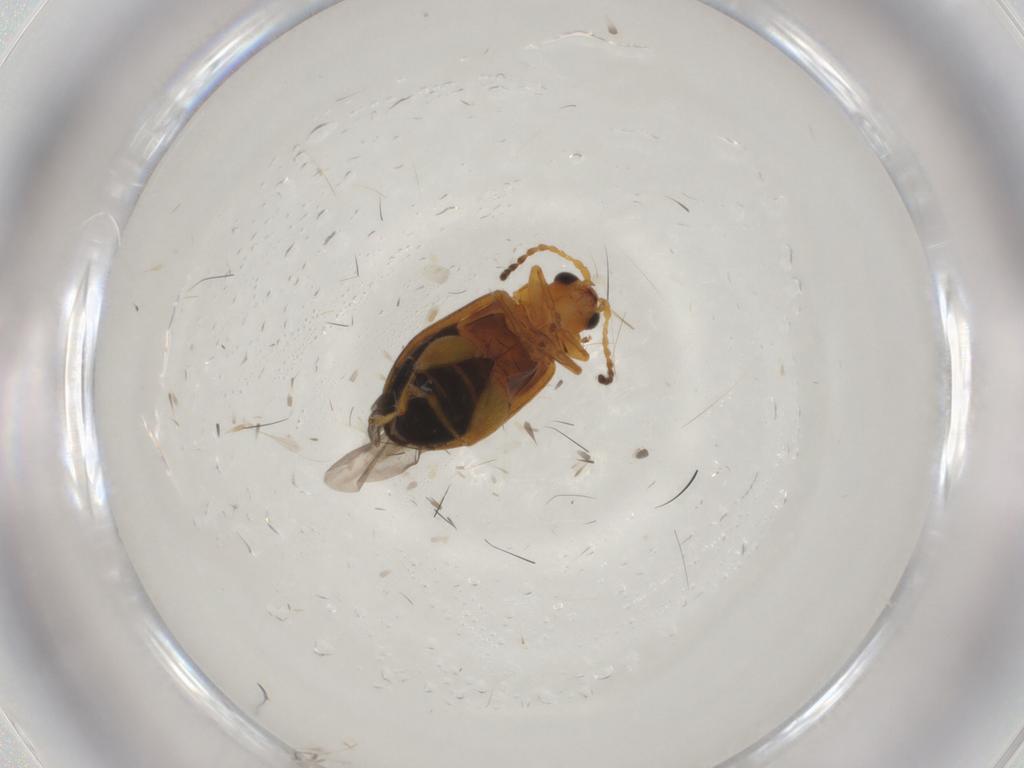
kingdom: Animalia
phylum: Arthropoda
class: Insecta
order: Coleoptera
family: Chrysomelidae
